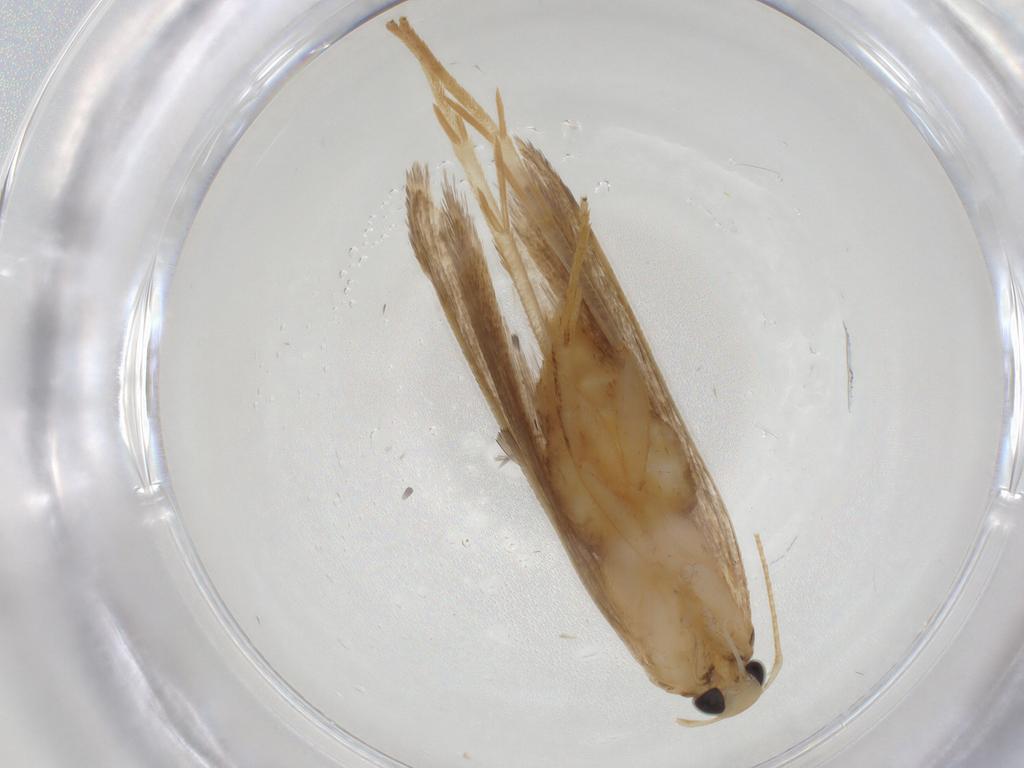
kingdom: Animalia
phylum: Arthropoda
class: Insecta
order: Lepidoptera
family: Gelechiidae
